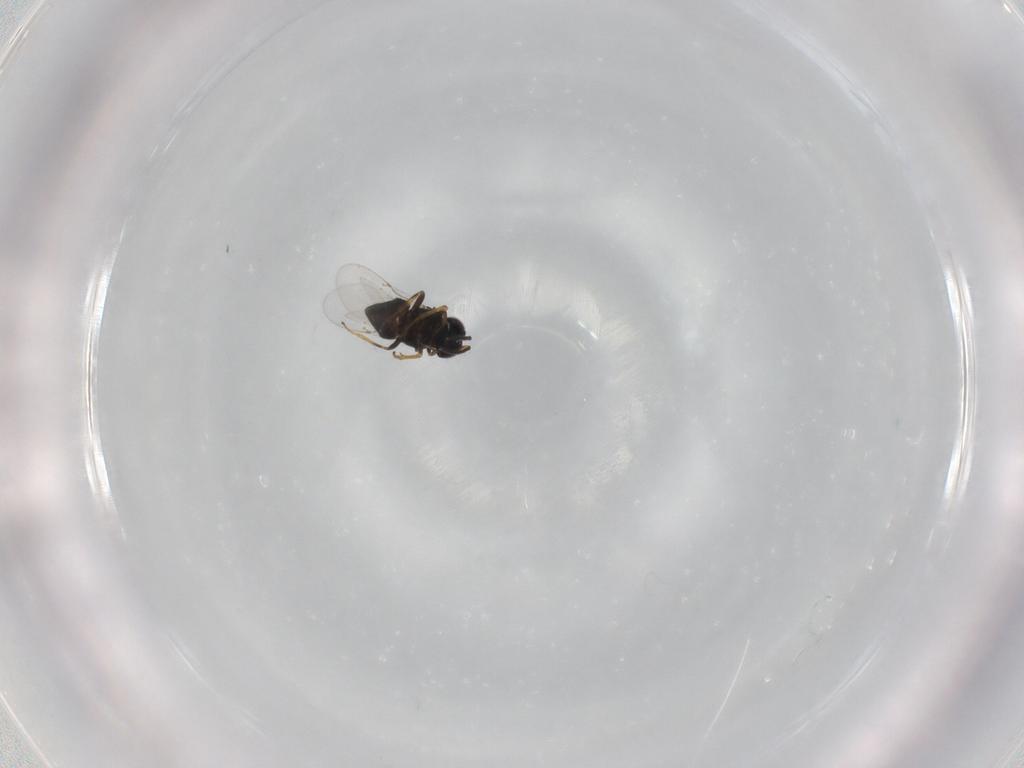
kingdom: Animalia
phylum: Arthropoda
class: Insecta
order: Hymenoptera
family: Encyrtidae
